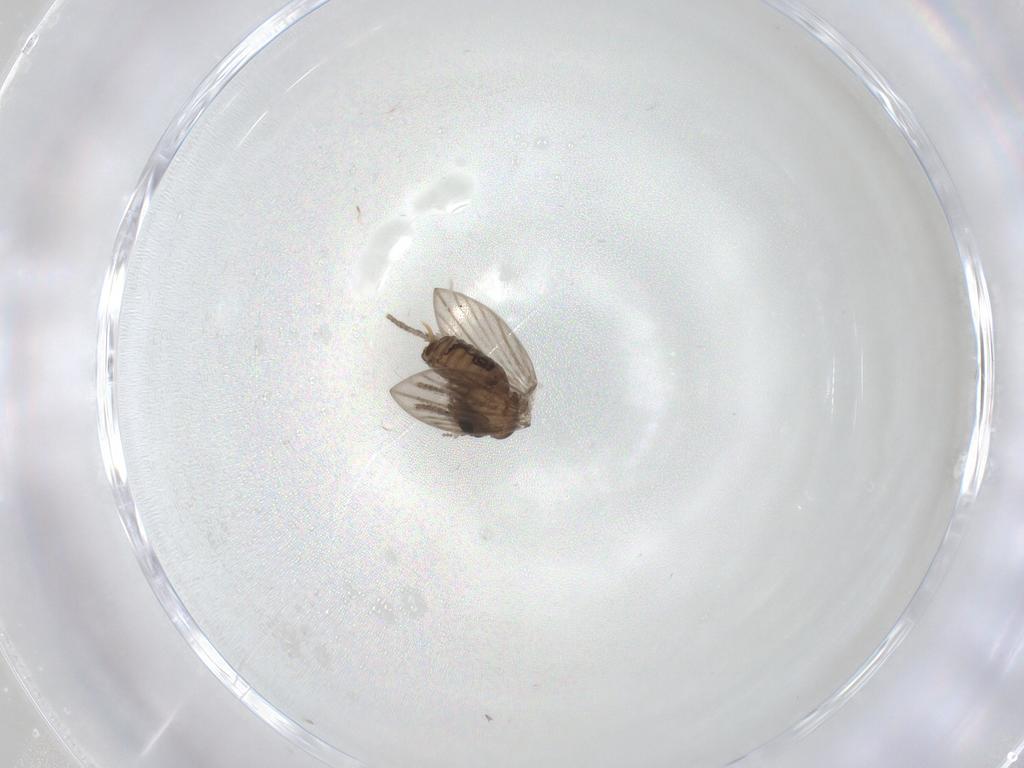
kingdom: Animalia
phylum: Arthropoda
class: Insecta
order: Diptera
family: Psychodidae
